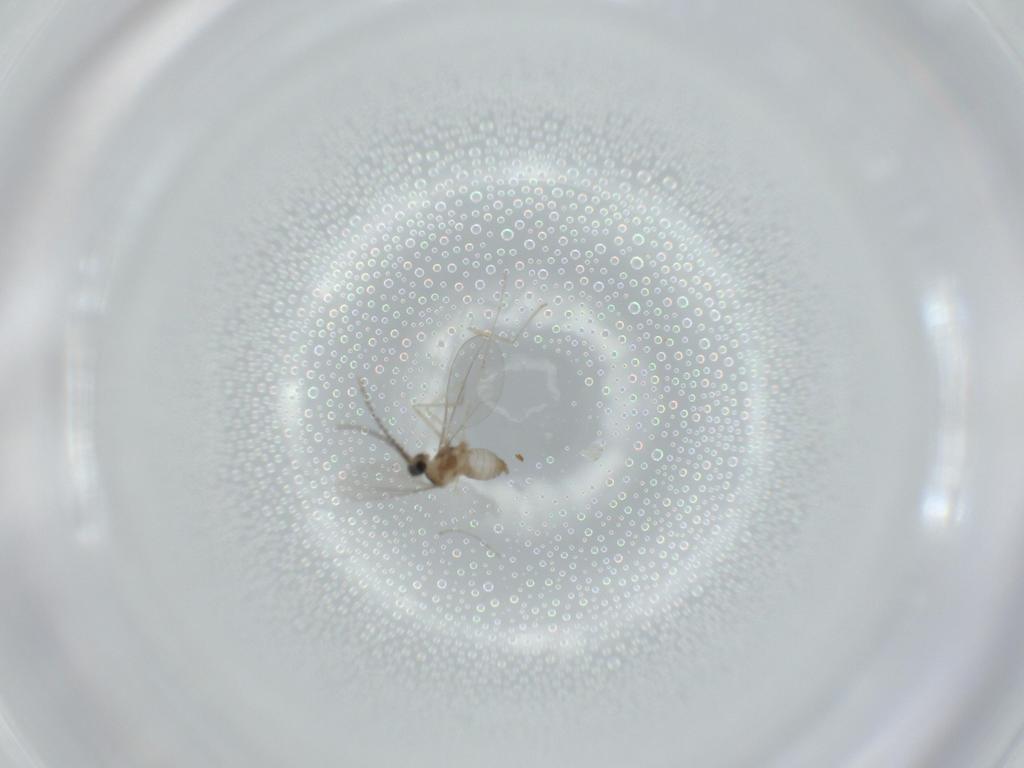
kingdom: Animalia
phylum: Arthropoda
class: Insecta
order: Diptera
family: Cecidomyiidae
